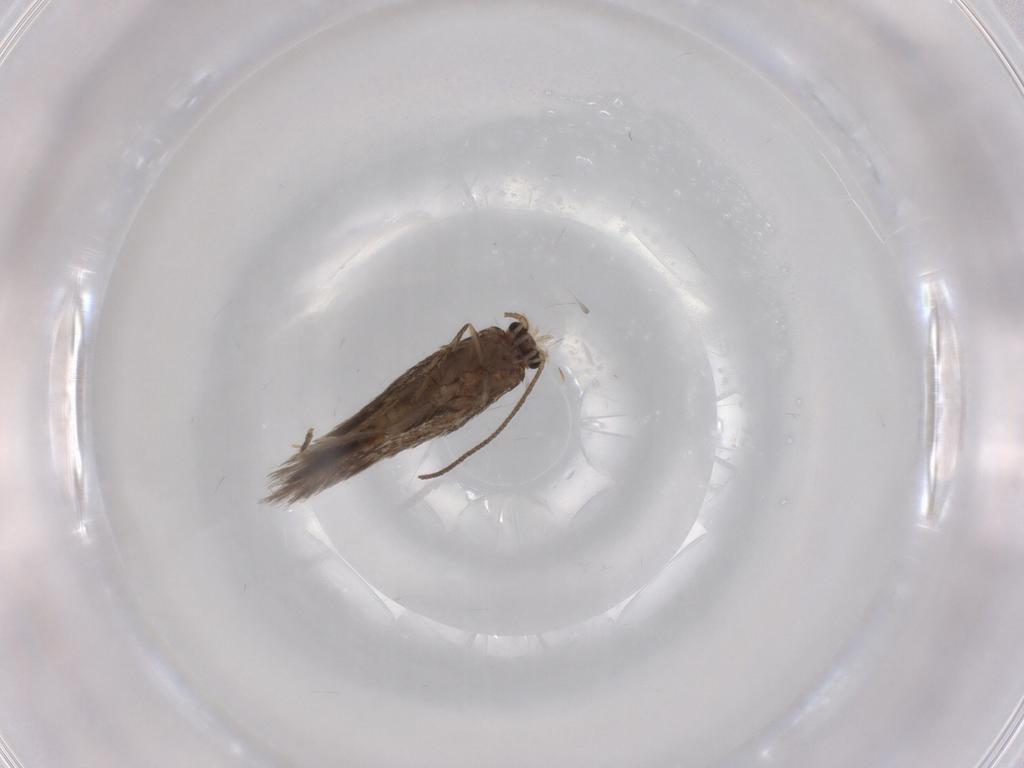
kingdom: Animalia
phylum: Arthropoda
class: Insecta
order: Lepidoptera
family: Nepticulidae
